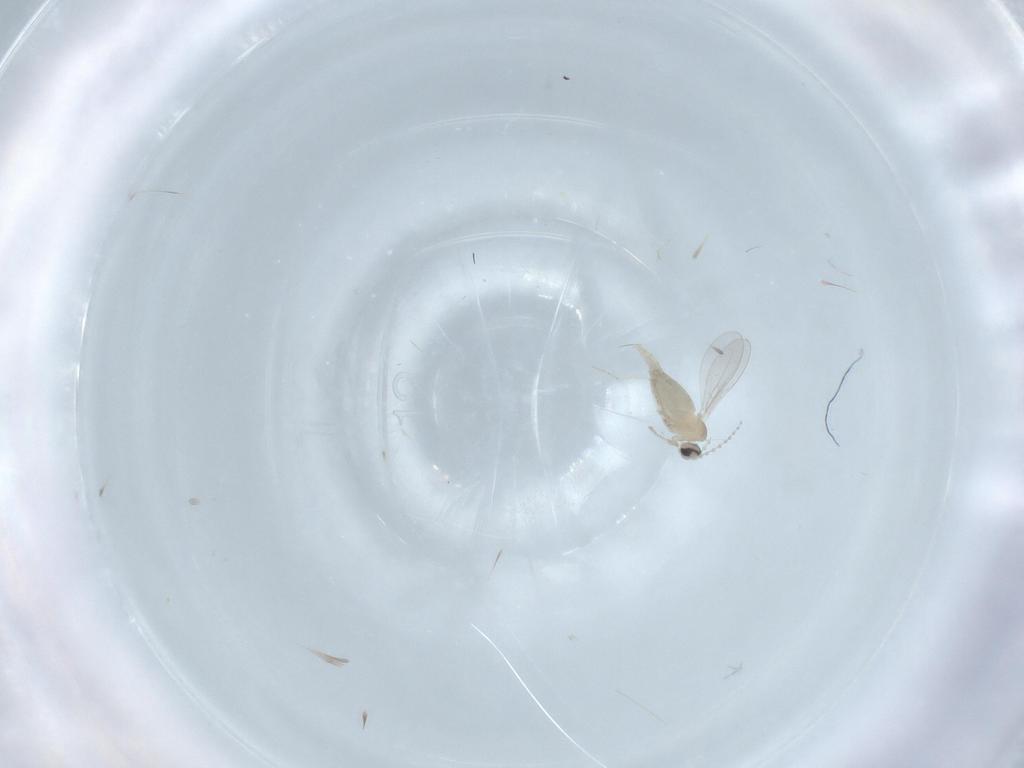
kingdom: Animalia
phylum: Arthropoda
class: Insecta
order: Diptera
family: Cecidomyiidae
